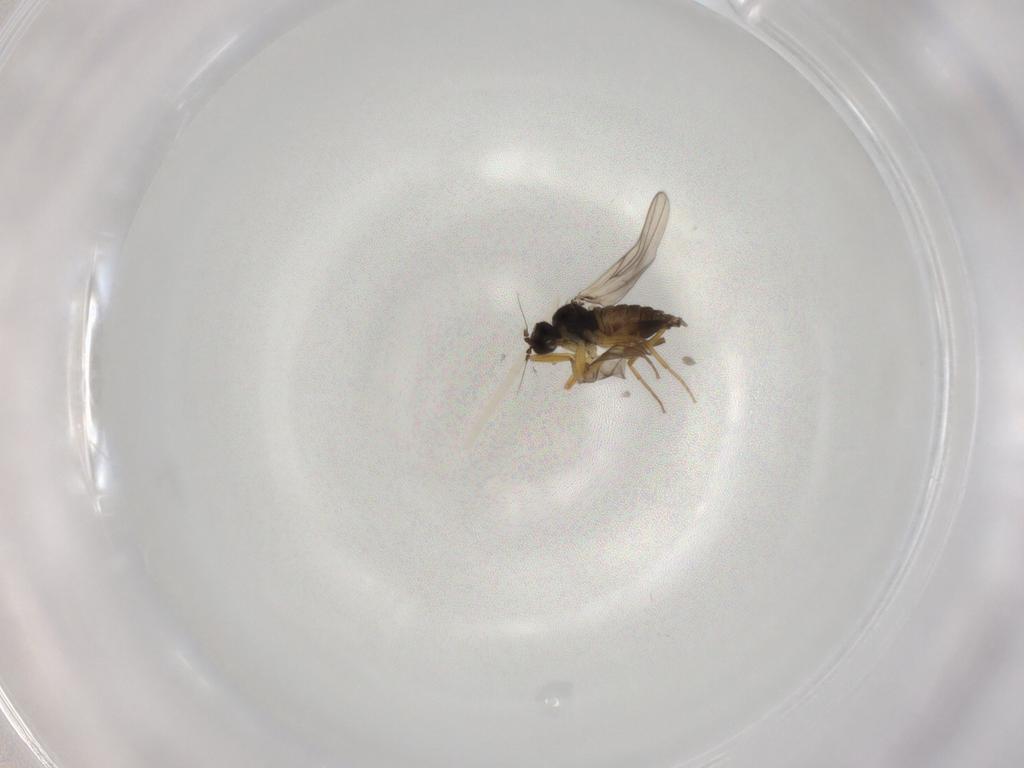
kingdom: Animalia
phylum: Arthropoda
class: Insecta
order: Diptera
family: Hybotidae
